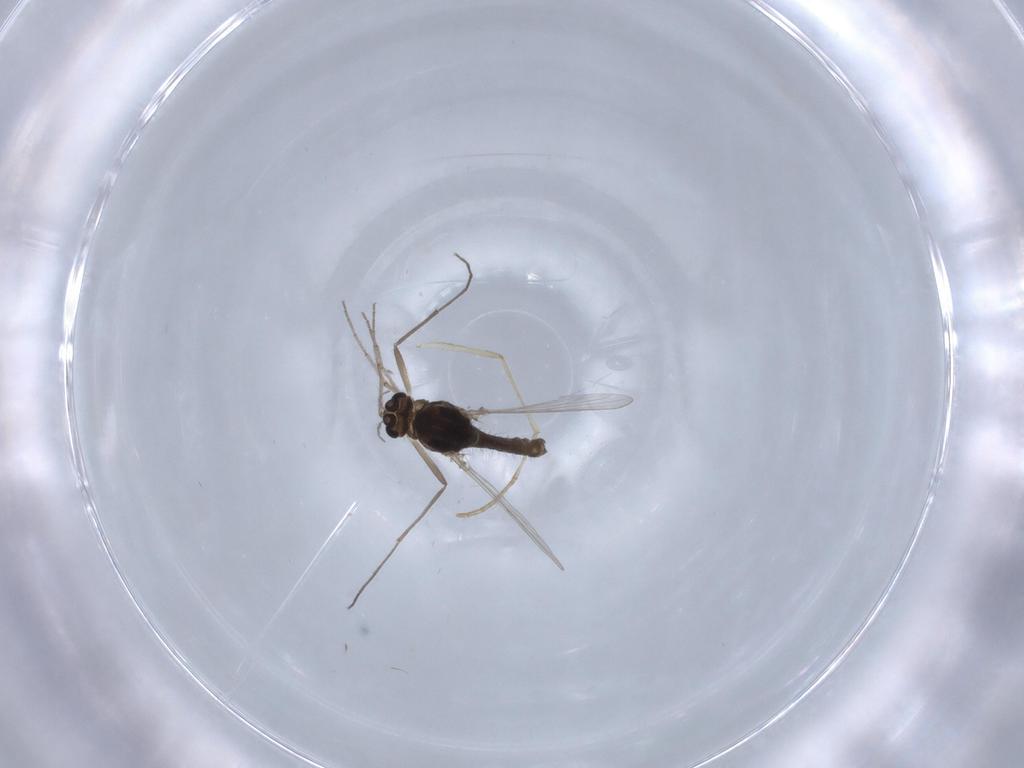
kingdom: Animalia
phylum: Arthropoda
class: Insecta
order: Diptera
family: Chironomidae
